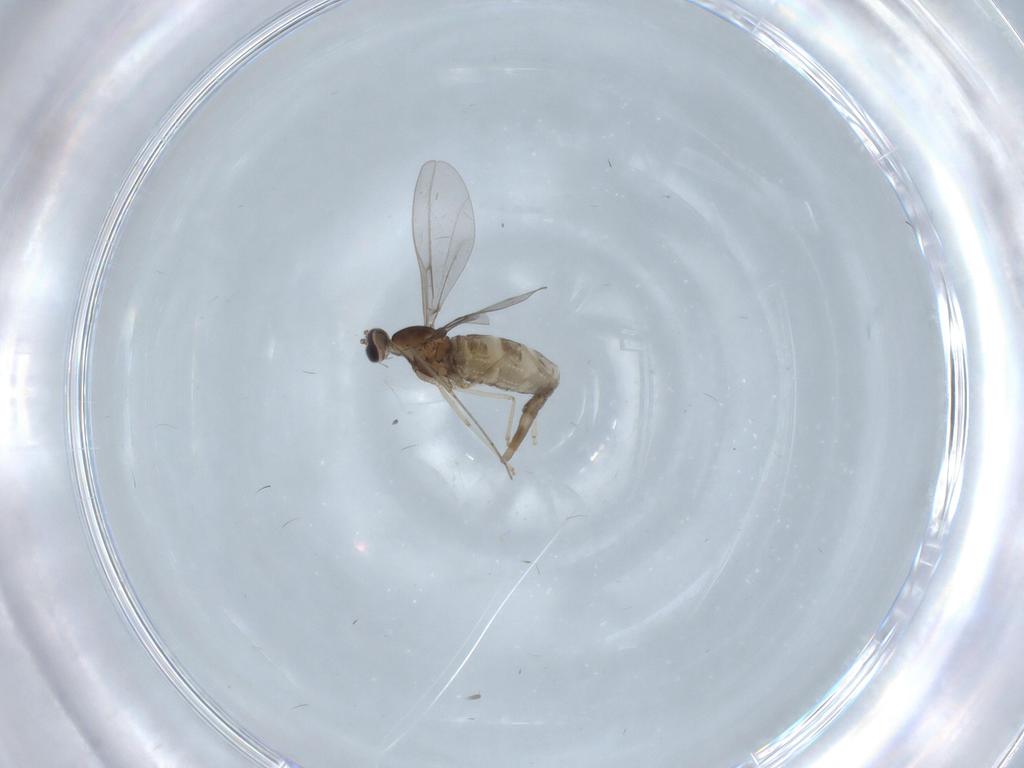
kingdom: Animalia
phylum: Arthropoda
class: Insecta
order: Diptera
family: Cecidomyiidae
